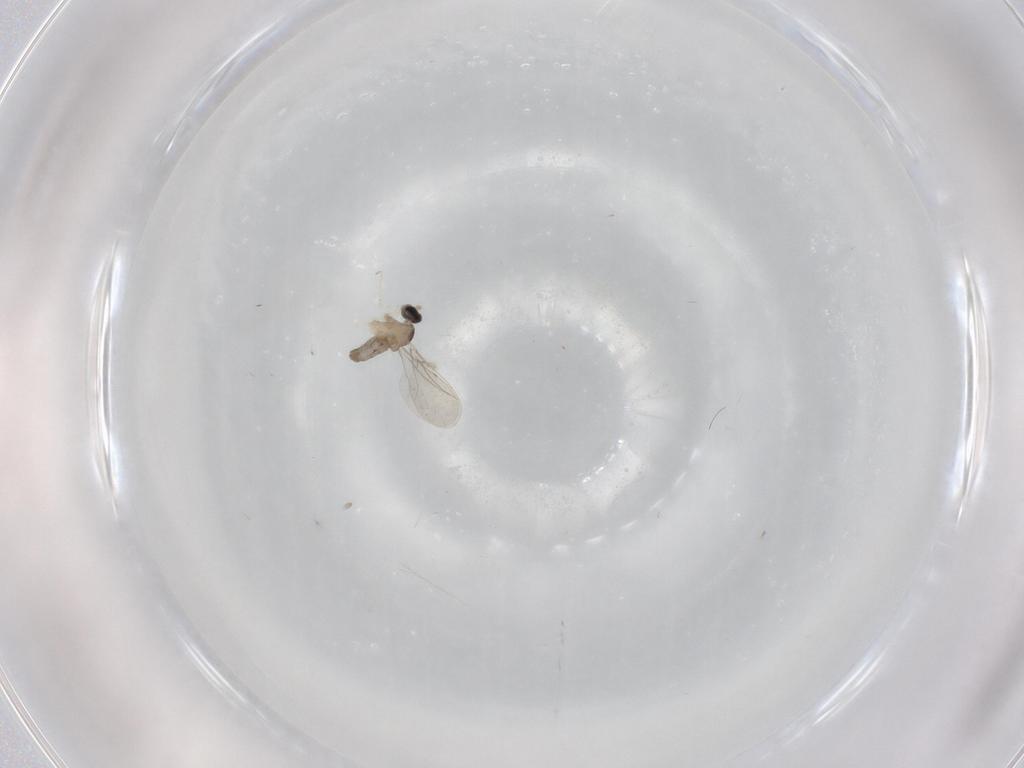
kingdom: Animalia
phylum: Arthropoda
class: Insecta
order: Diptera
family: Cecidomyiidae
